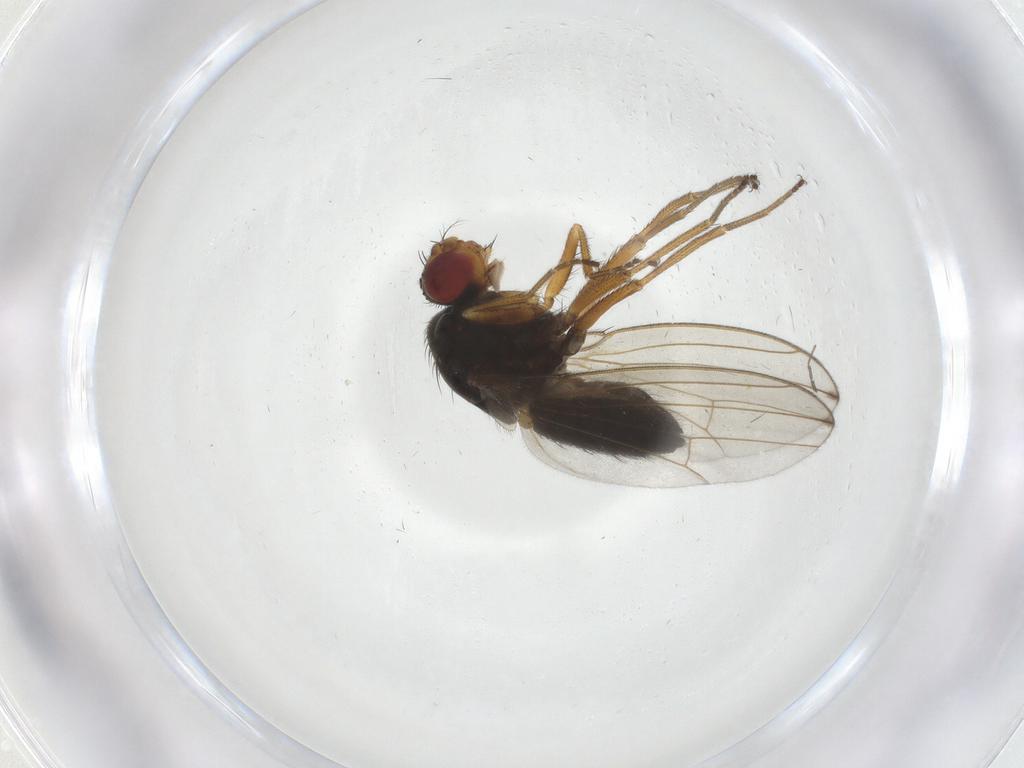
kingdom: Animalia
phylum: Arthropoda
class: Insecta
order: Diptera
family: Drosophilidae
